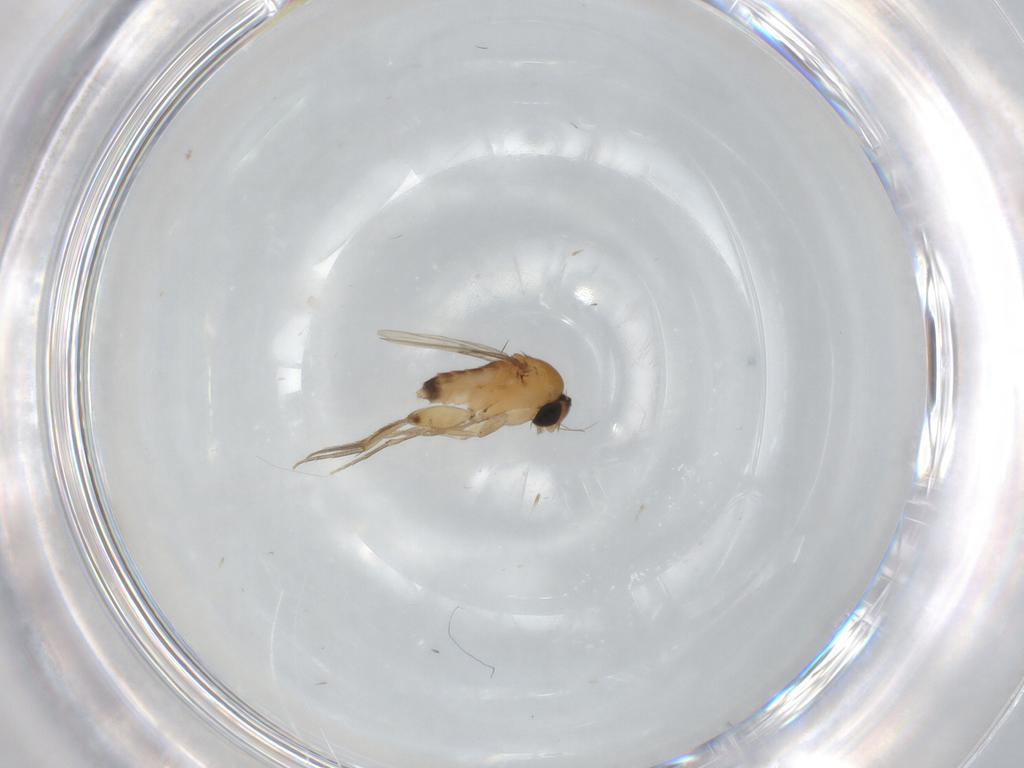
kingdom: Animalia
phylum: Arthropoda
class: Insecta
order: Diptera
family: Phoridae
